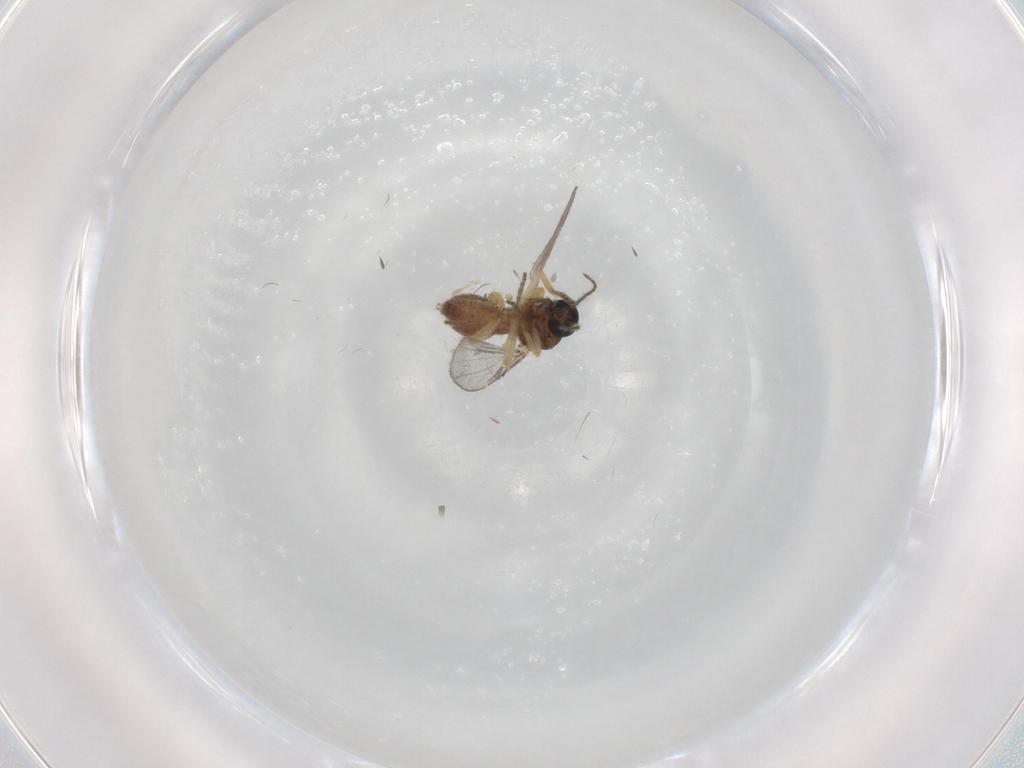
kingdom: Animalia
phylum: Arthropoda
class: Insecta
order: Diptera
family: Ceratopogonidae
